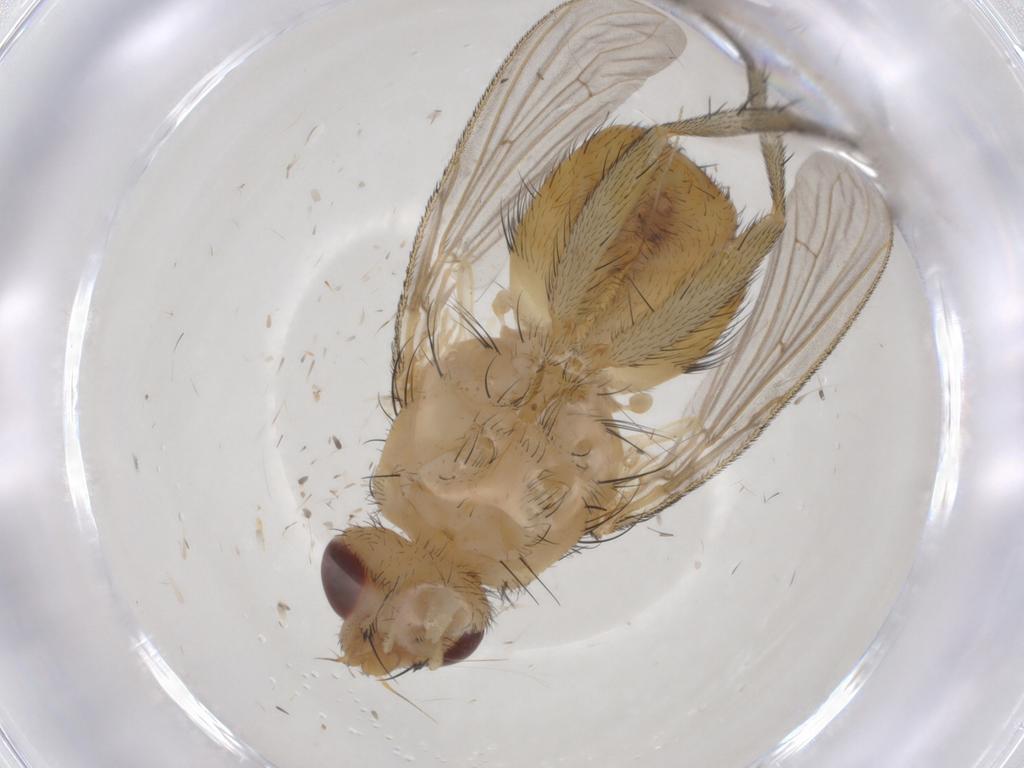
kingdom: Animalia
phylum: Arthropoda
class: Insecta
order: Diptera
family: Tachinidae
